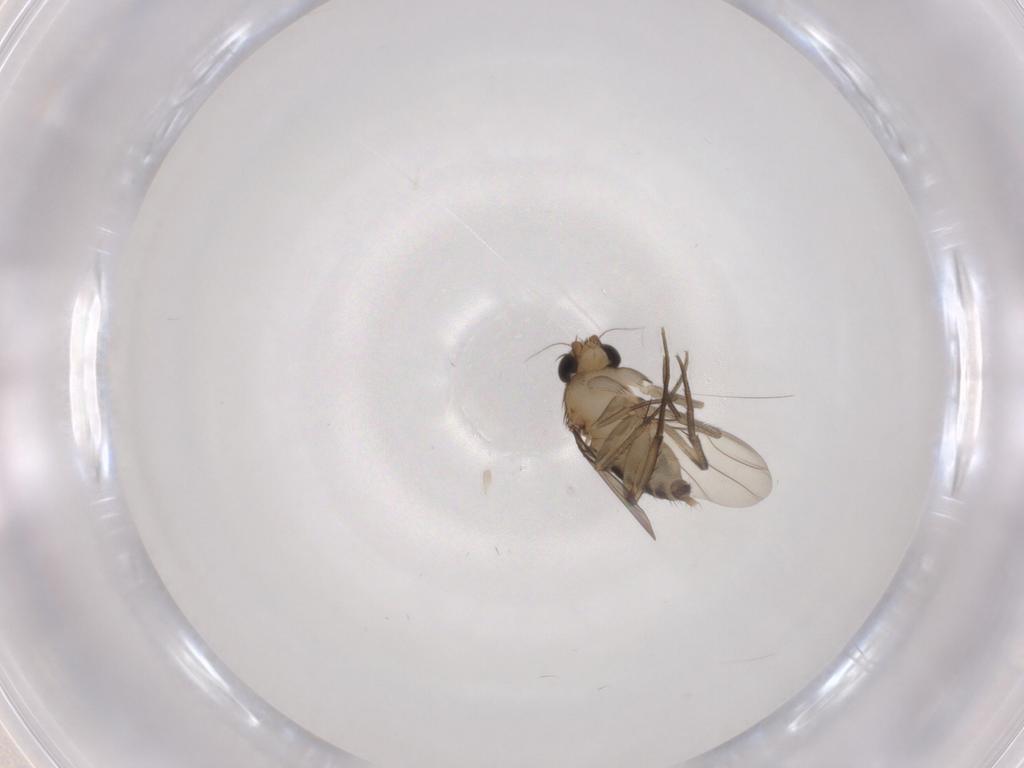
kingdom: Animalia
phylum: Arthropoda
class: Insecta
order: Diptera
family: Phoridae
